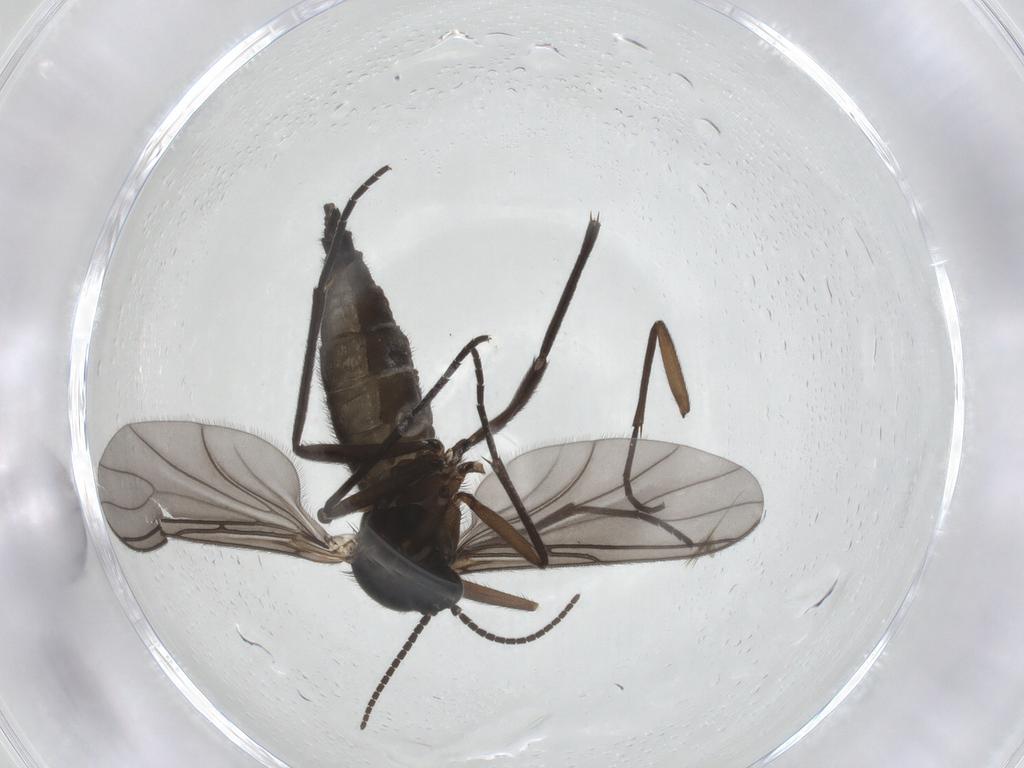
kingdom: Animalia
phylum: Arthropoda
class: Insecta
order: Diptera
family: Sciaridae
